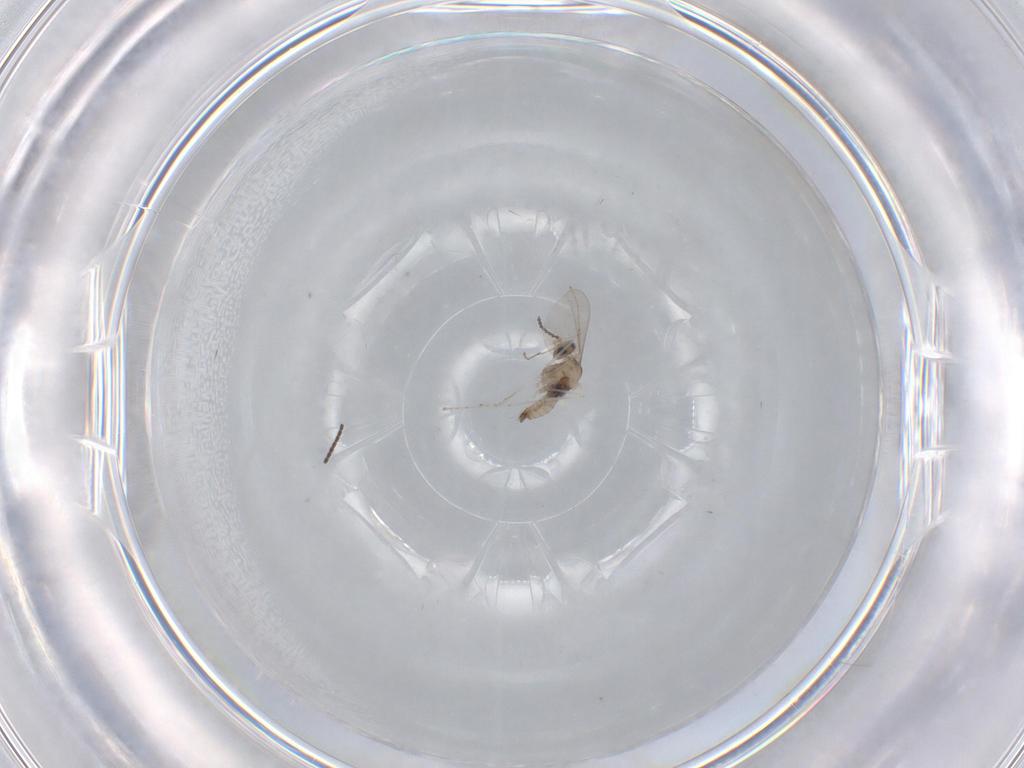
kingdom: Animalia
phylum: Arthropoda
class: Insecta
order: Diptera
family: Cecidomyiidae
